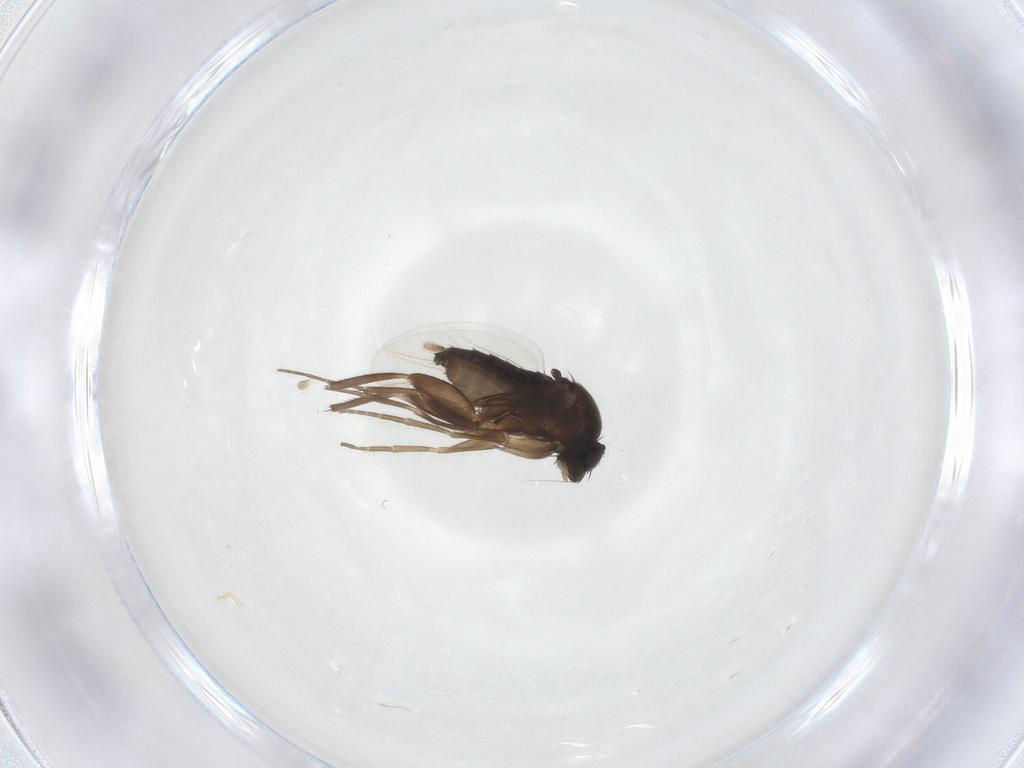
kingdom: Animalia
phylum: Arthropoda
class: Insecta
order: Diptera
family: Phoridae
